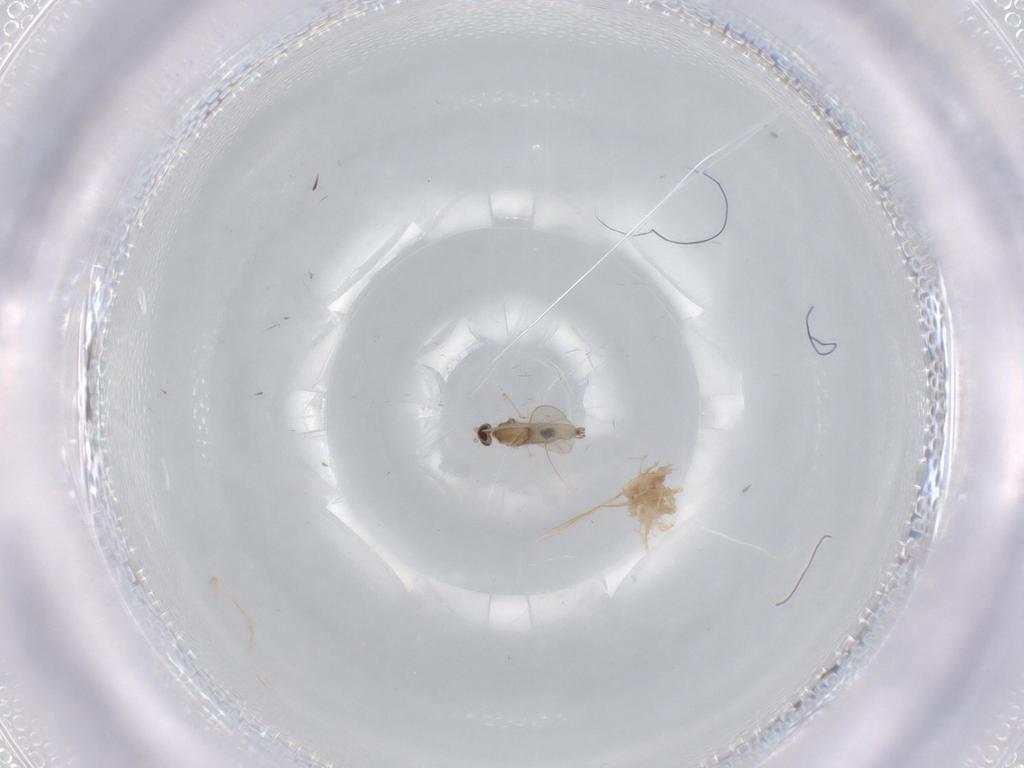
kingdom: Animalia
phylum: Arthropoda
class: Insecta
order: Diptera
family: Cecidomyiidae
